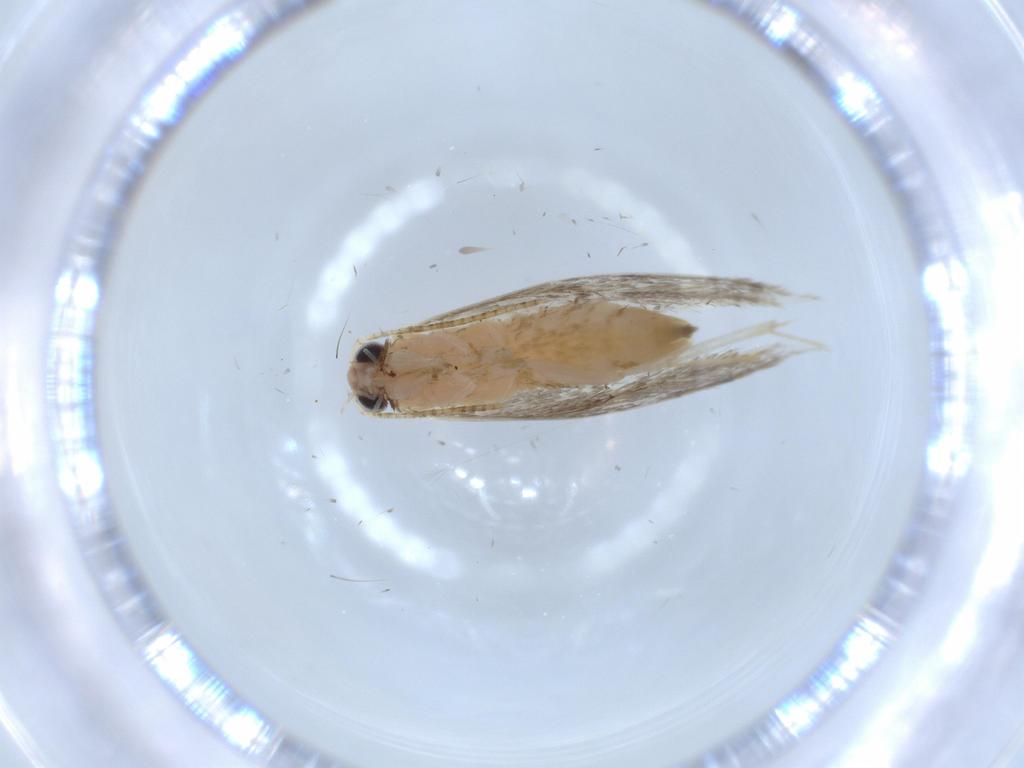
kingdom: Animalia
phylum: Arthropoda
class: Insecta
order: Lepidoptera
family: Tineidae
